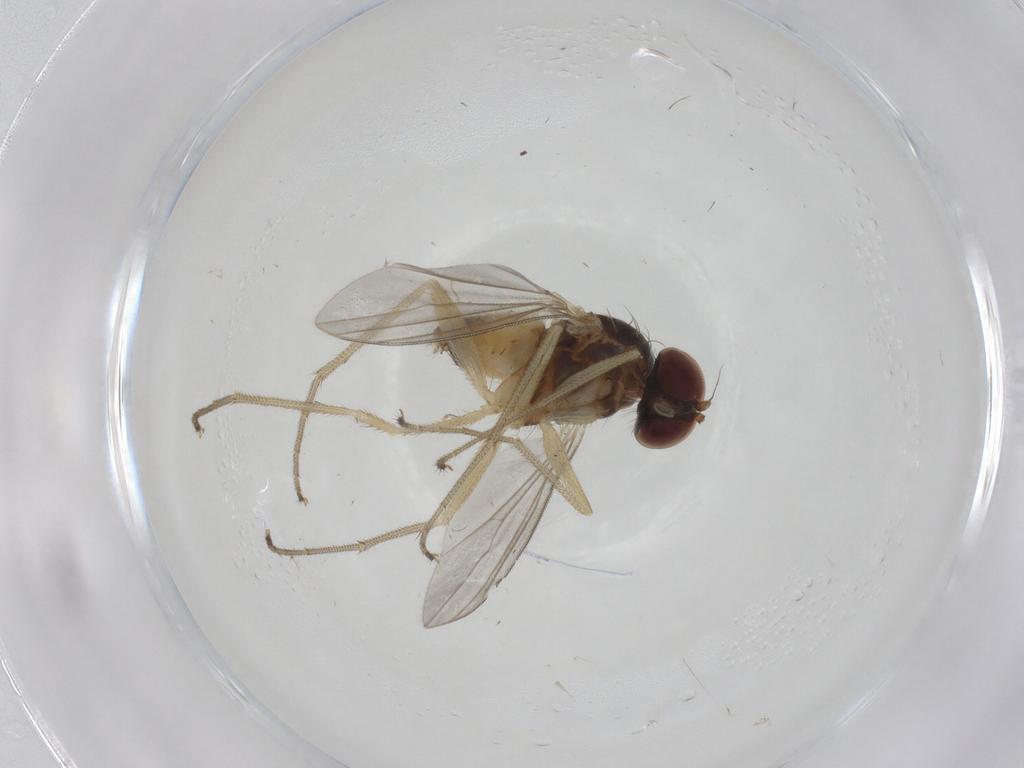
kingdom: Animalia
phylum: Arthropoda
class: Insecta
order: Diptera
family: Dolichopodidae
